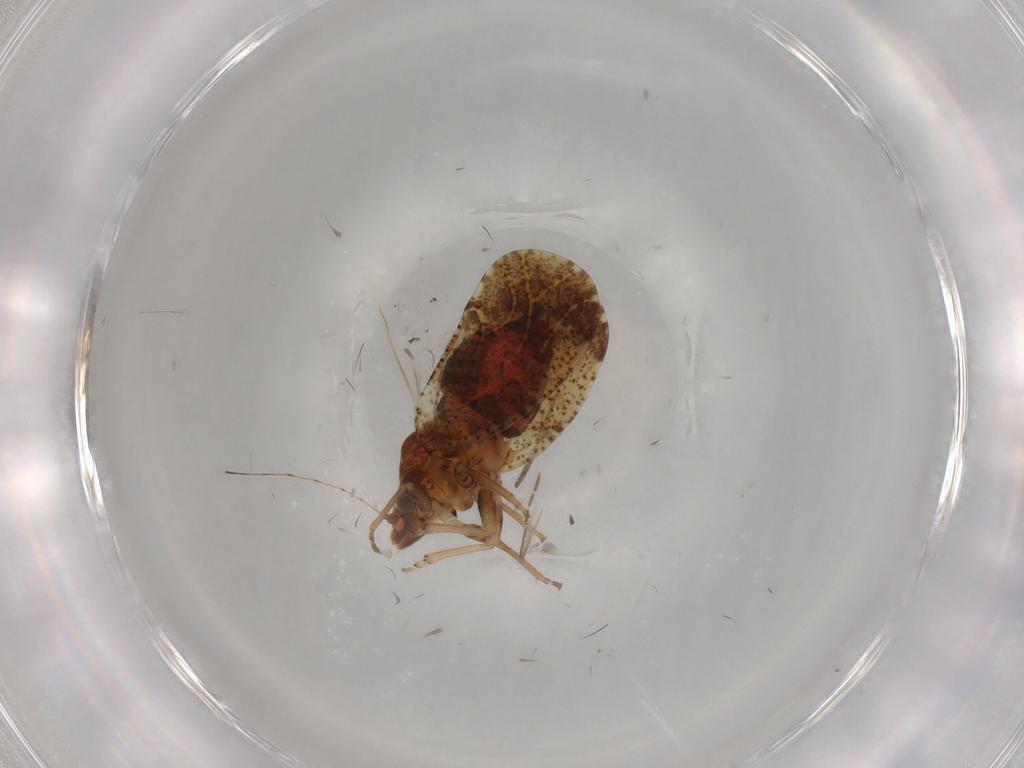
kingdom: Animalia
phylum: Arthropoda
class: Insecta
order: Hemiptera
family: Psyllidae
